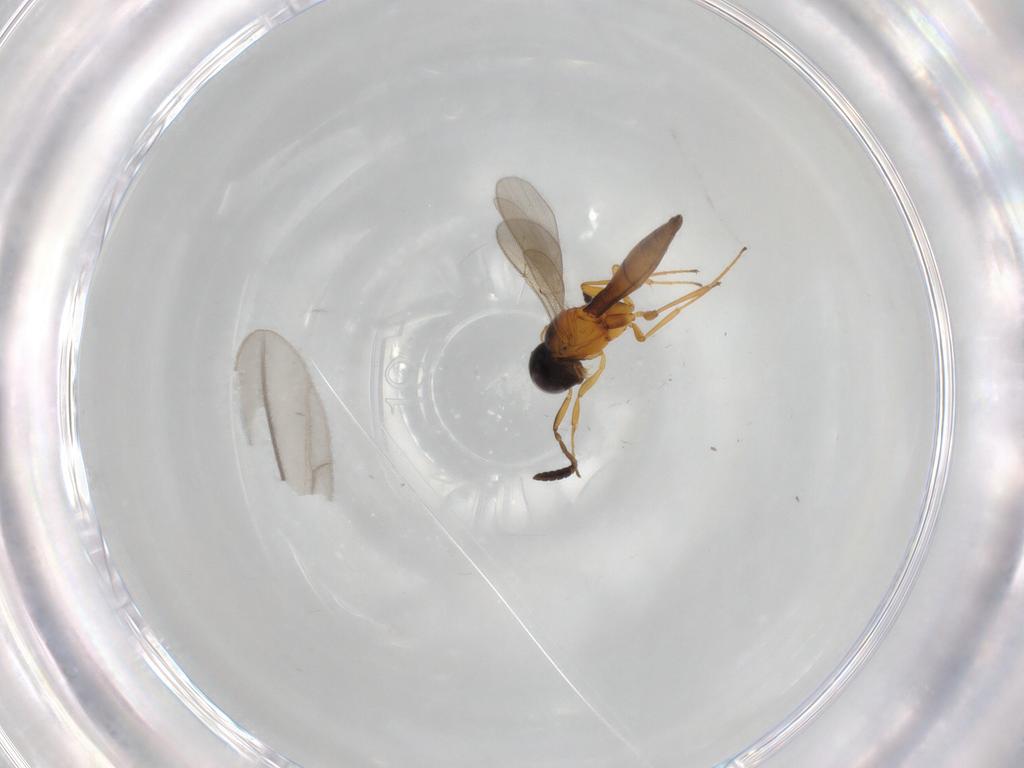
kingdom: Animalia
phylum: Arthropoda
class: Insecta
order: Hymenoptera
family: Scelionidae
